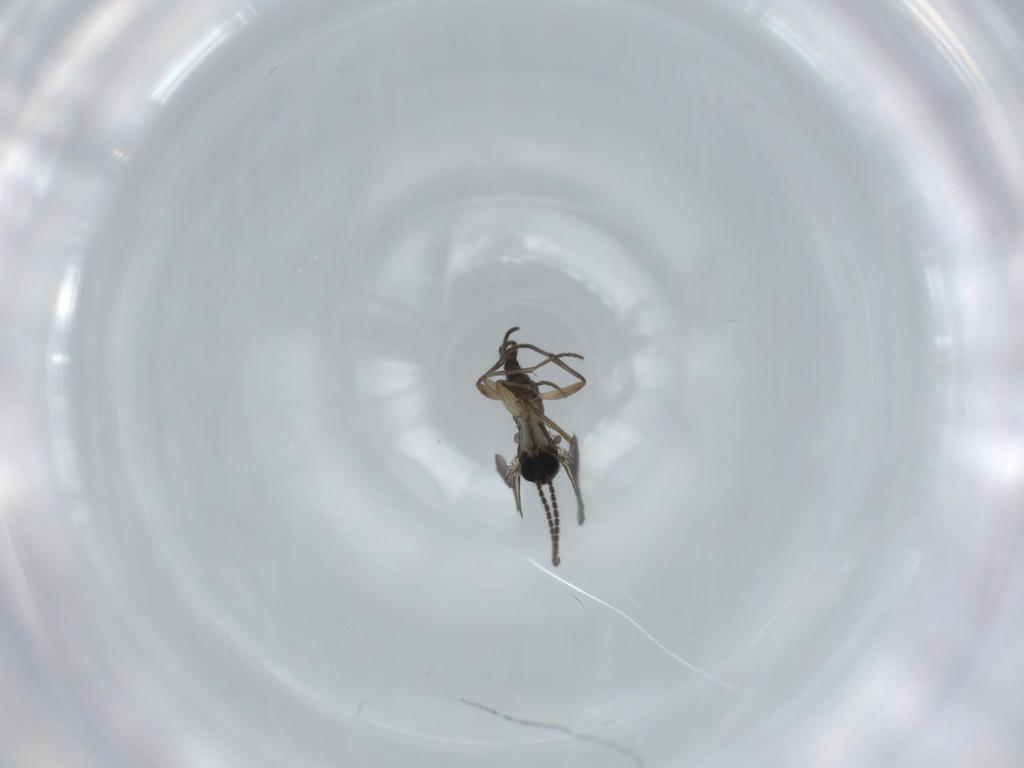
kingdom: Animalia
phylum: Arthropoda
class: Insecta
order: Diptera
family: Sciaridae
